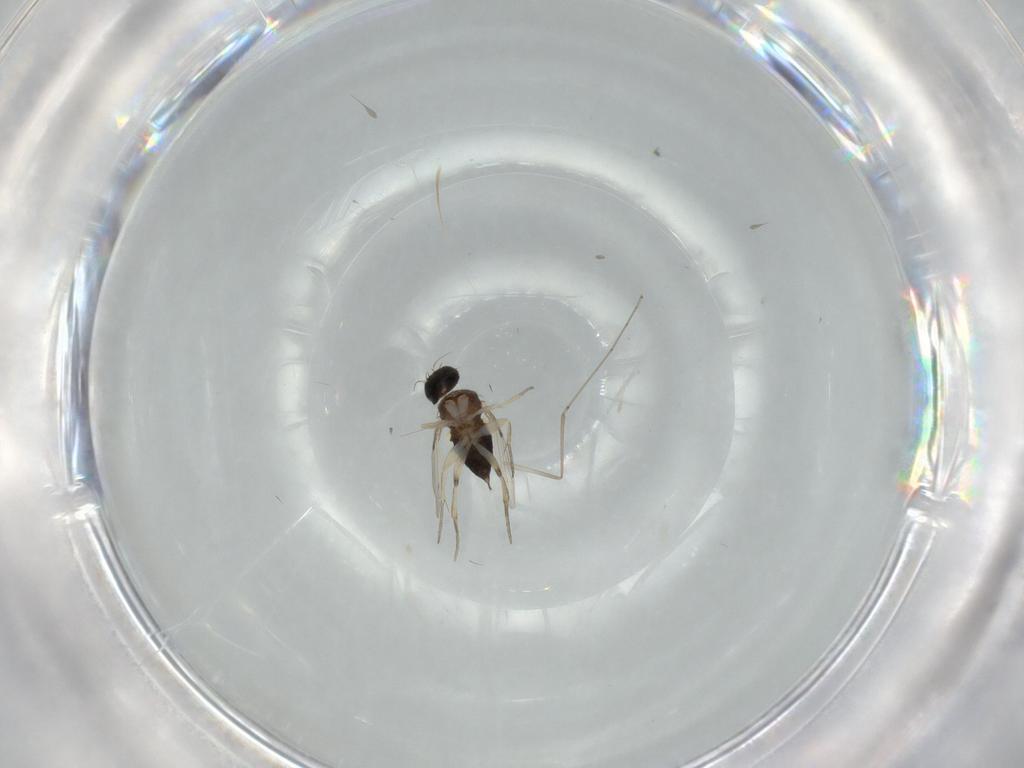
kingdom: Animalia
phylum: Arthropoda
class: Insecta
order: Diptera
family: Phoridae
